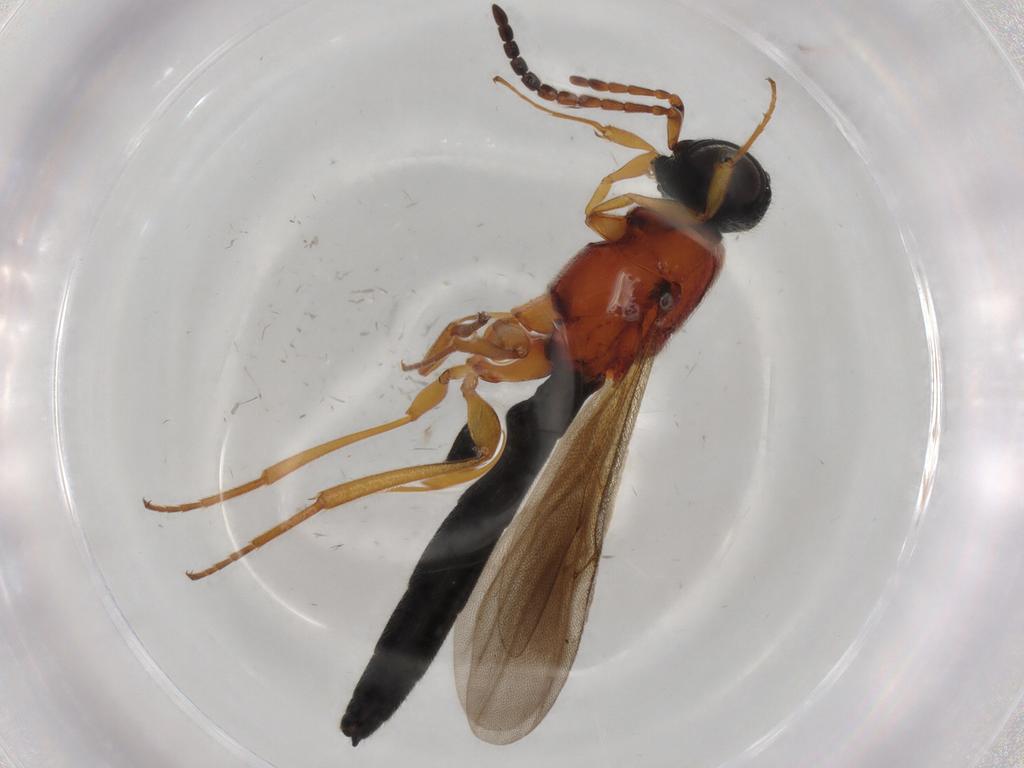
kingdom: Animalia
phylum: Arthropoda
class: Insecta
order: Hymenoptera
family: Scelionidae
